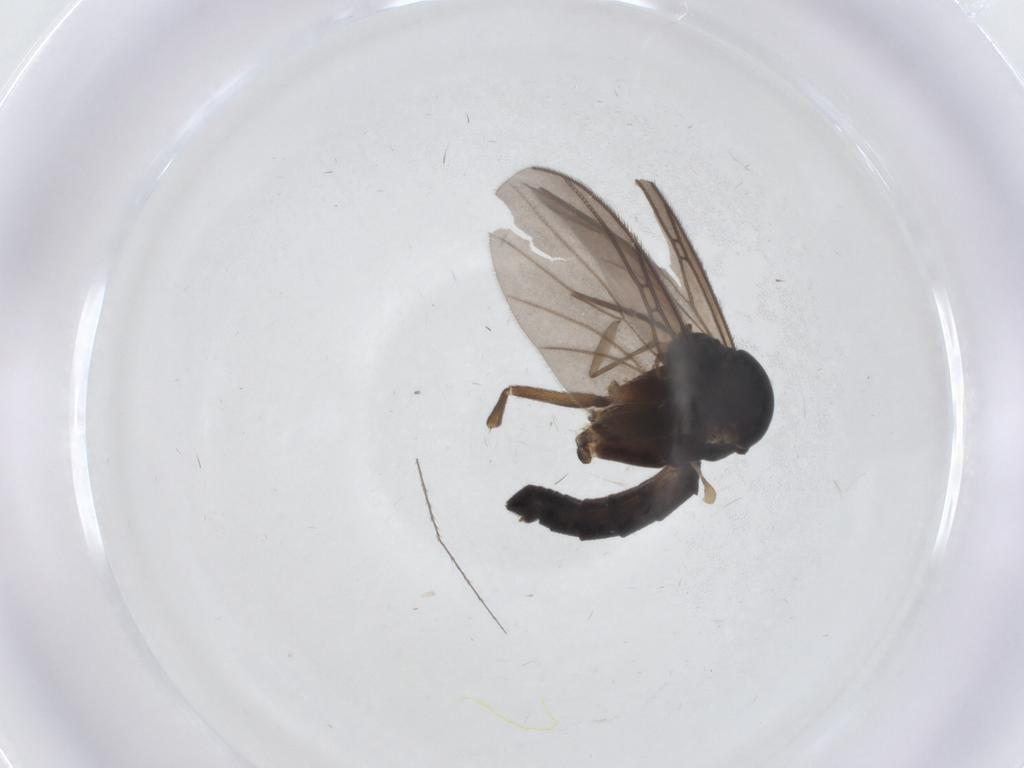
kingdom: Animalia
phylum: Arthropoda
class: Insecta
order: Diptera
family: Sciaridae
